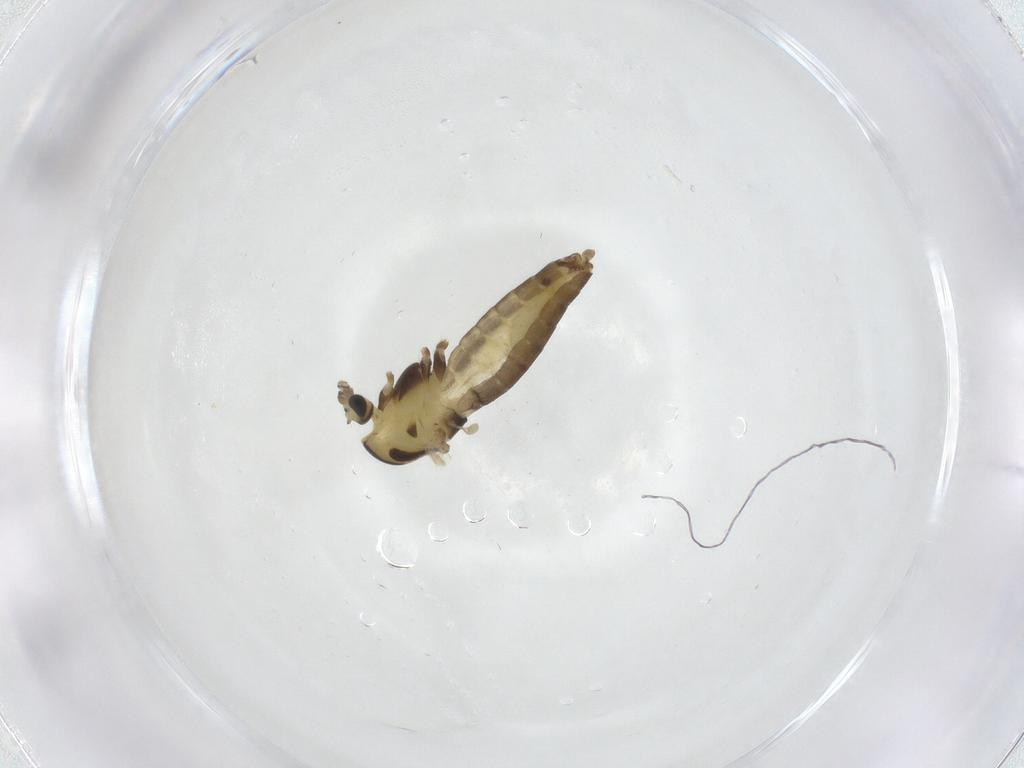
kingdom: Animalia
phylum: Arthropoda
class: Insecta
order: Diptera
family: Chironomidae
